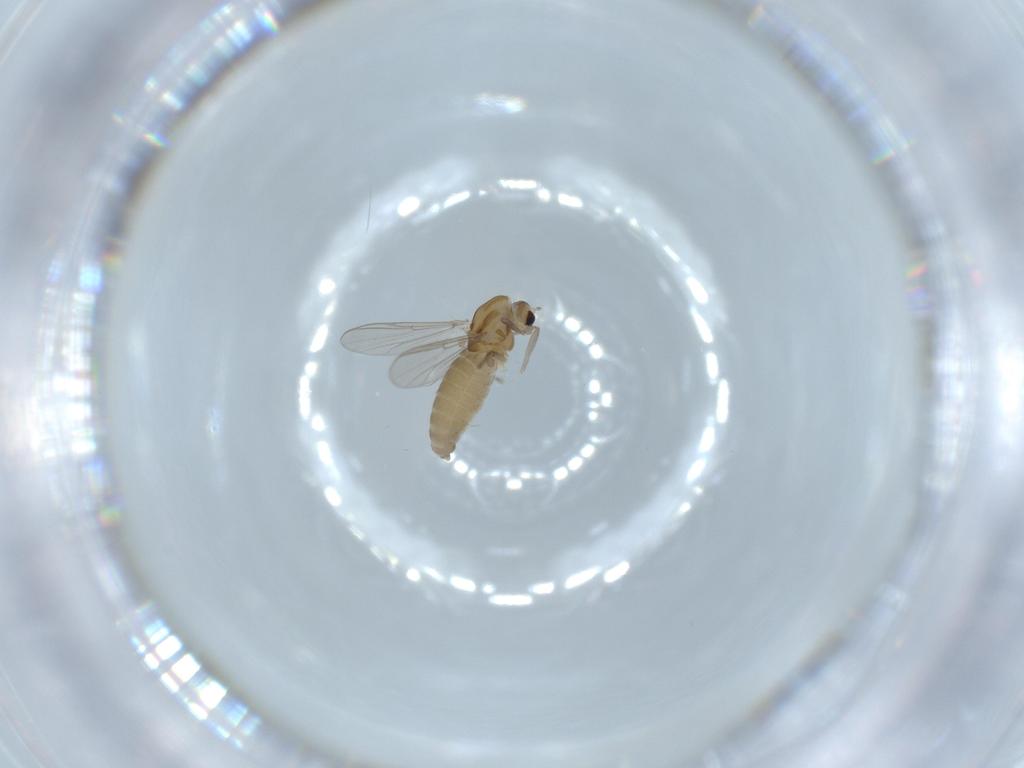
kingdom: Animalia
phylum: Arthropoda
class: Insecta
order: Diptera
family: Chironomidae
